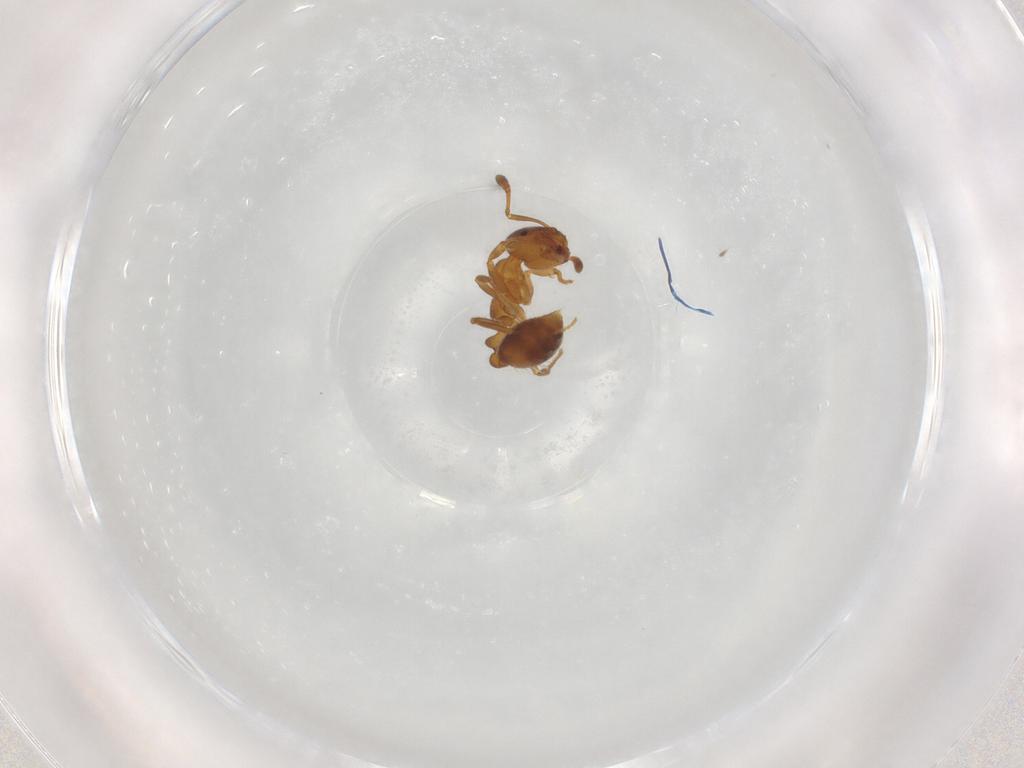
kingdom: Animalia
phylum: Arthropoda
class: Insecta
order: Hymenoptera
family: Formicidae
